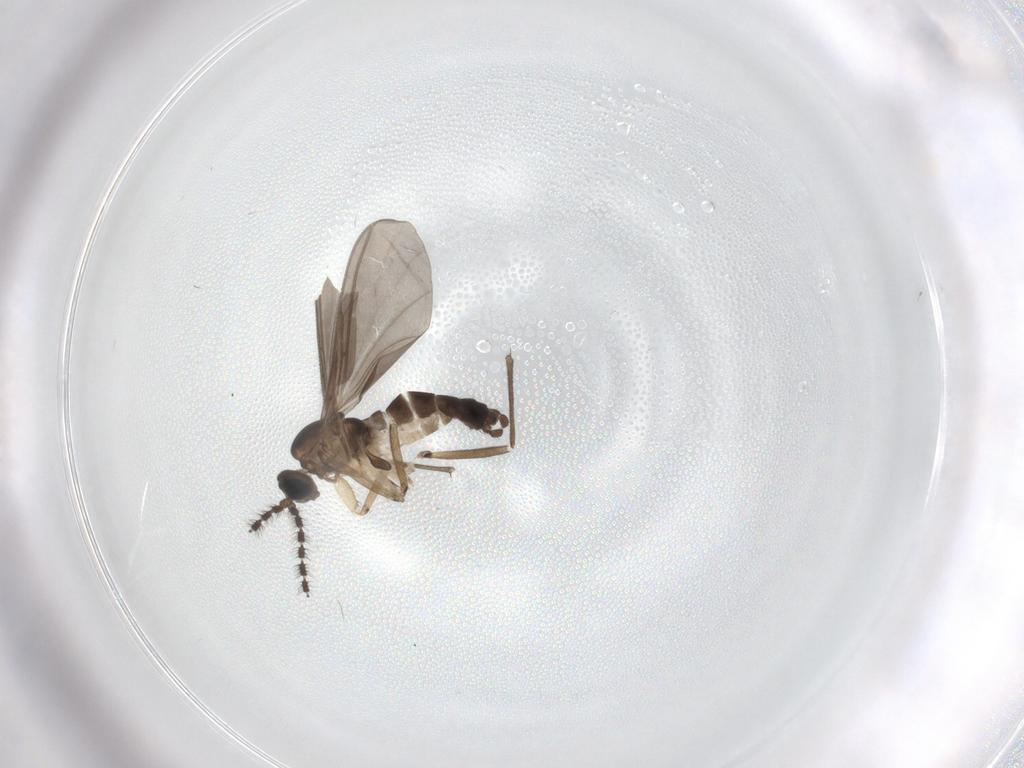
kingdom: Animalia
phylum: Arthropoda
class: Insecta
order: Diptera
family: Sciaridae
